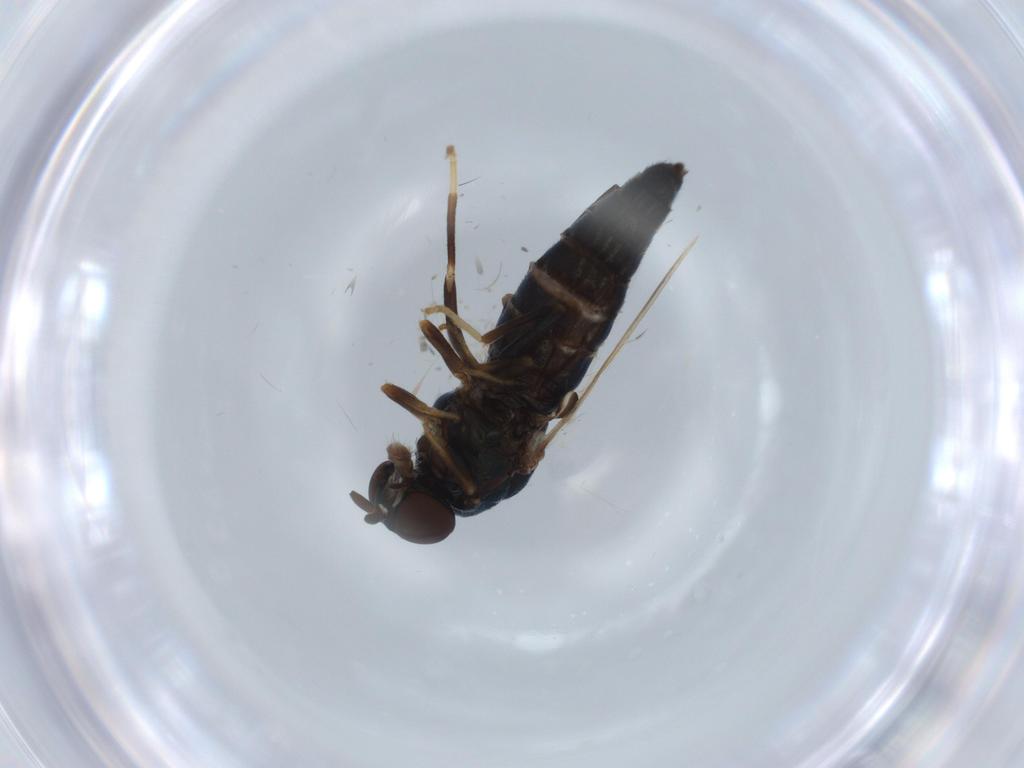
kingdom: Animalia
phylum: Arthropoda
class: Insecta
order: Diptera
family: Scenopinidae
